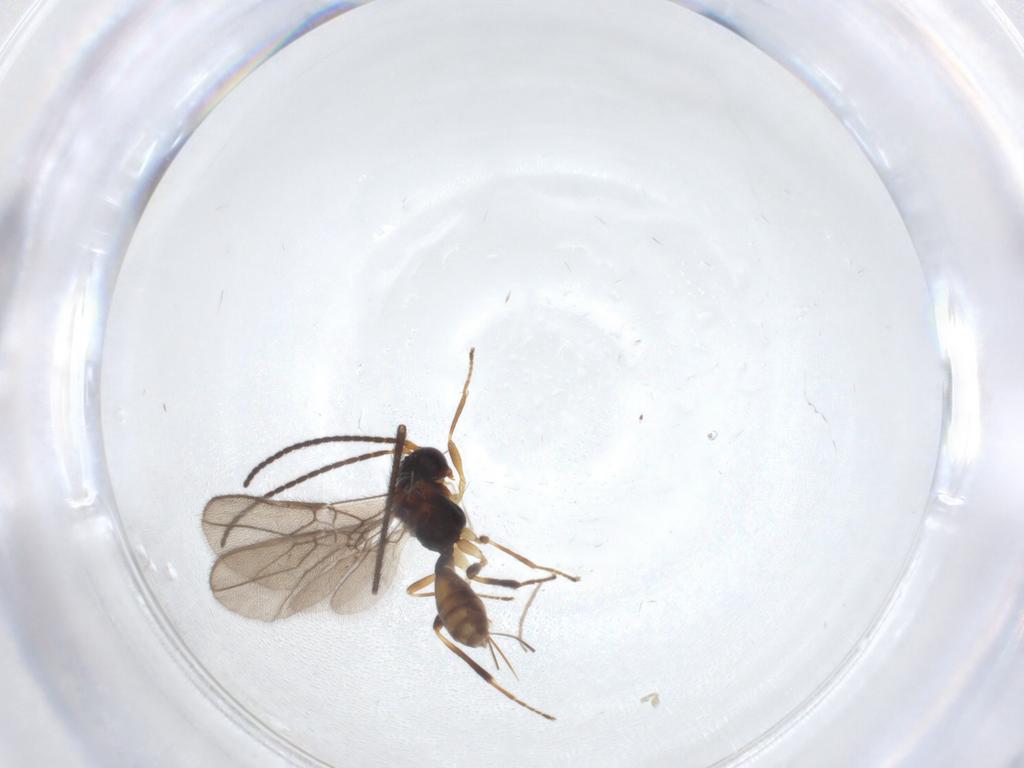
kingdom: Animalia
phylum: Arthropoda
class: Insecta
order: Hymenoptera
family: Braconidae
